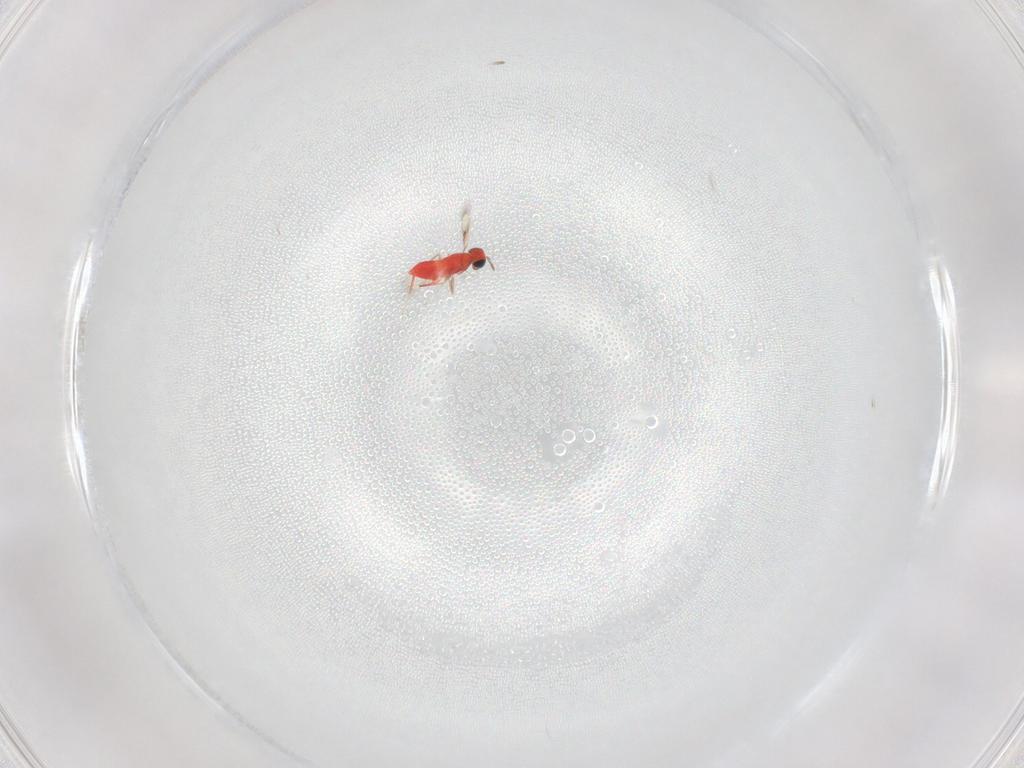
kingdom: Animalia
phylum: Arthropoda
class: Insecta
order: Hymenoptera
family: Trichogrammatidae
